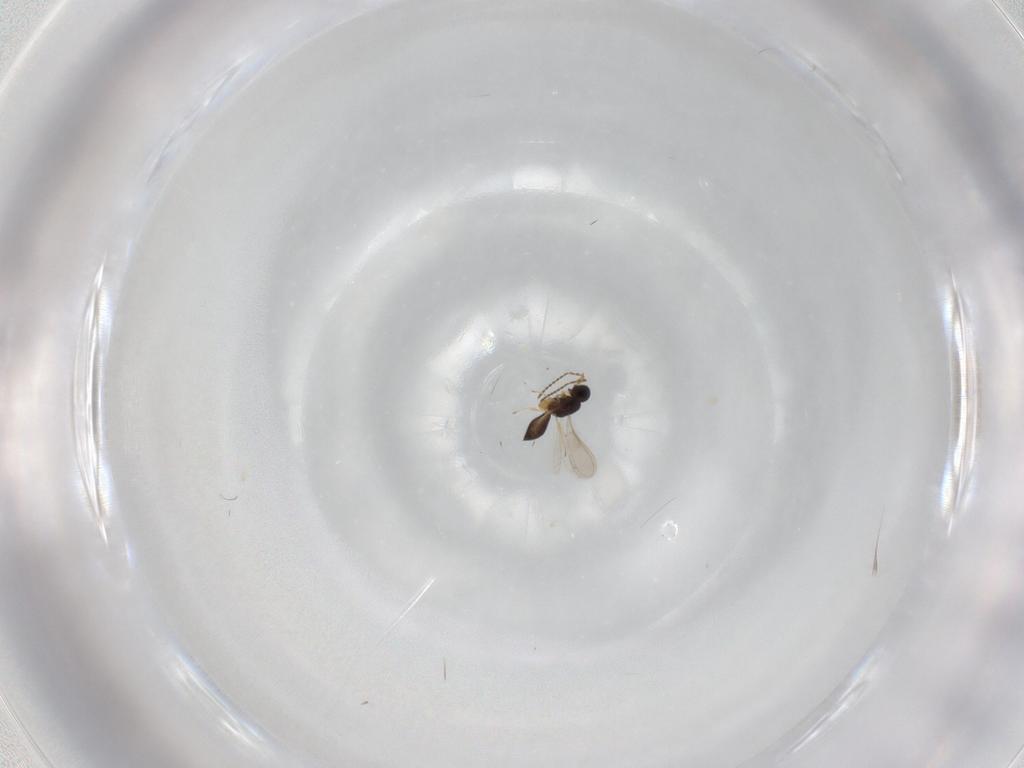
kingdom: Animalia
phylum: Arthropoda
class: Insecta
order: Hymenoptera
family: Scelionidae
